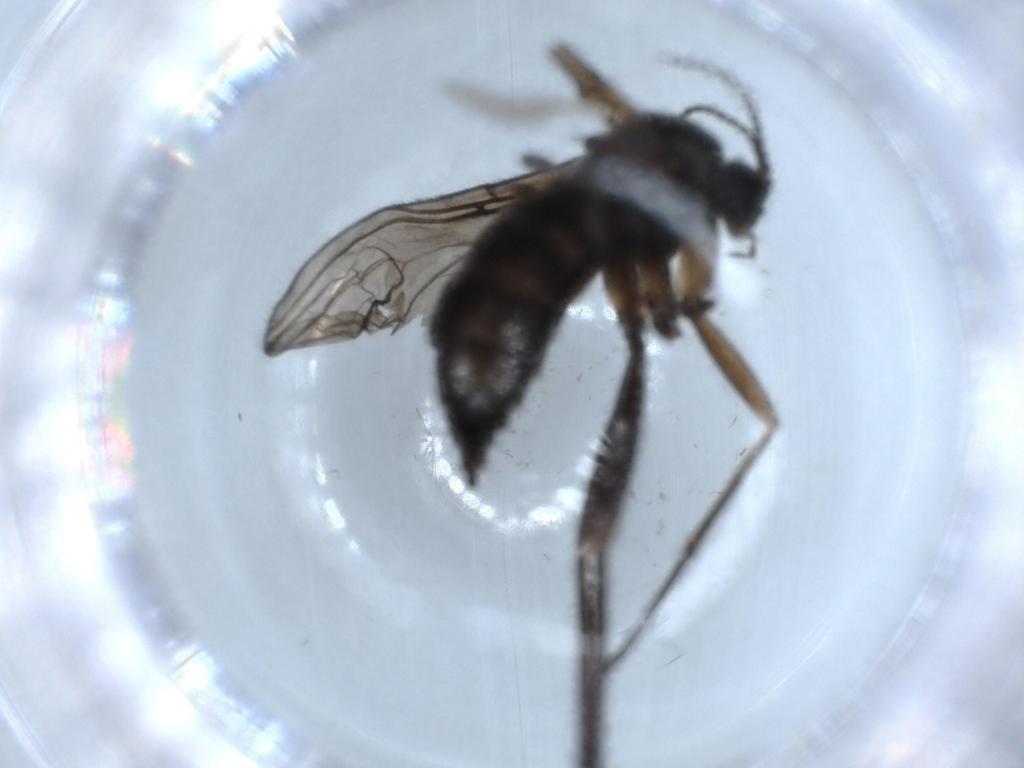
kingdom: Animalia
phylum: Arthropoda
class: Insecta
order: Diptera
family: Sciaridae
